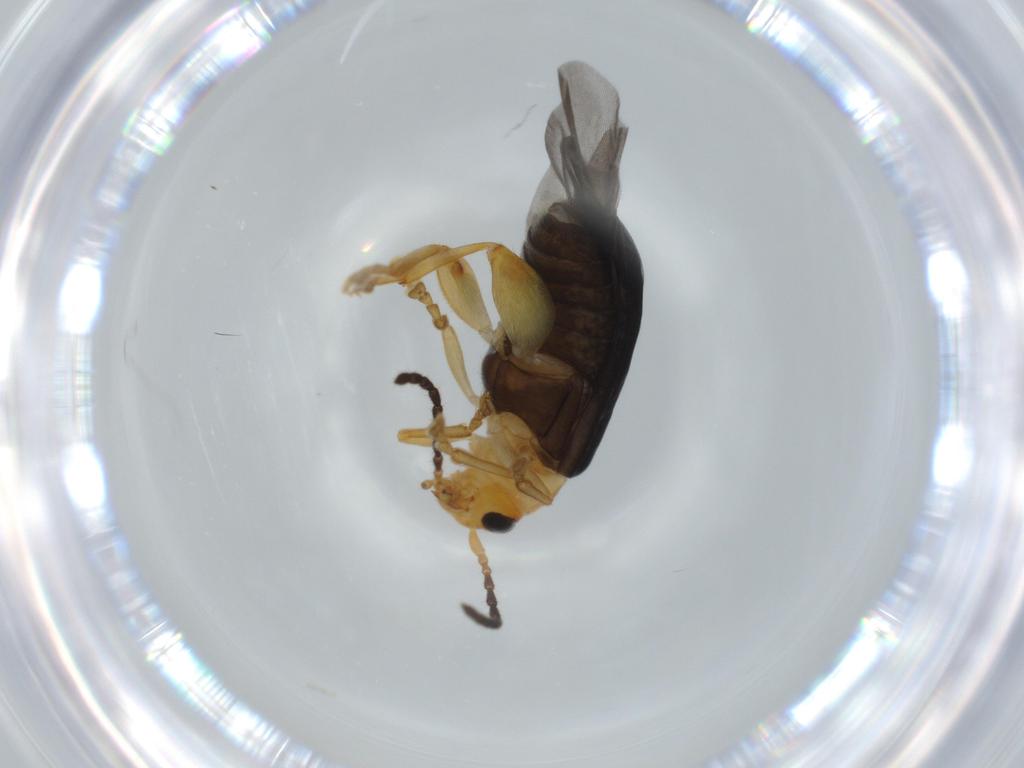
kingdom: Animalia
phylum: Arthropoda
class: Insecta
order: Coleoptera
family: Chrysomelidae
